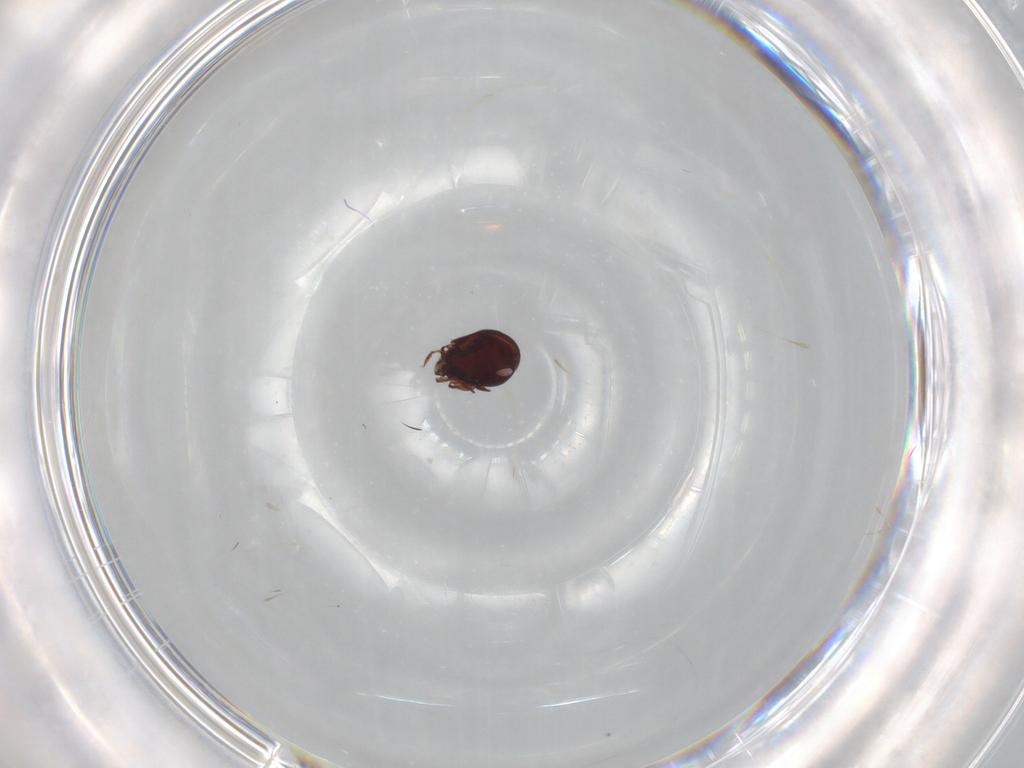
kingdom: Animalia
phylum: Arthropoda
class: Arachnida
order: Sarcoptiformes
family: Humerobatidae
